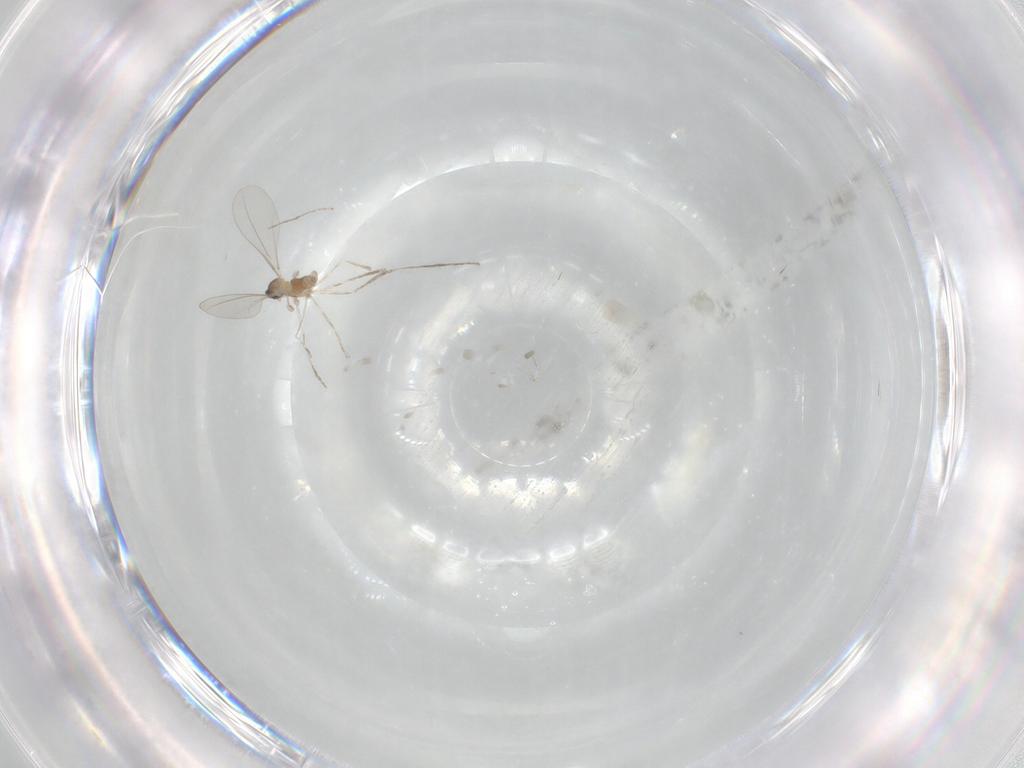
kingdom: Animalia
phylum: Arthropoda
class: Insecta
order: Diptera
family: Cecidomyiidae
